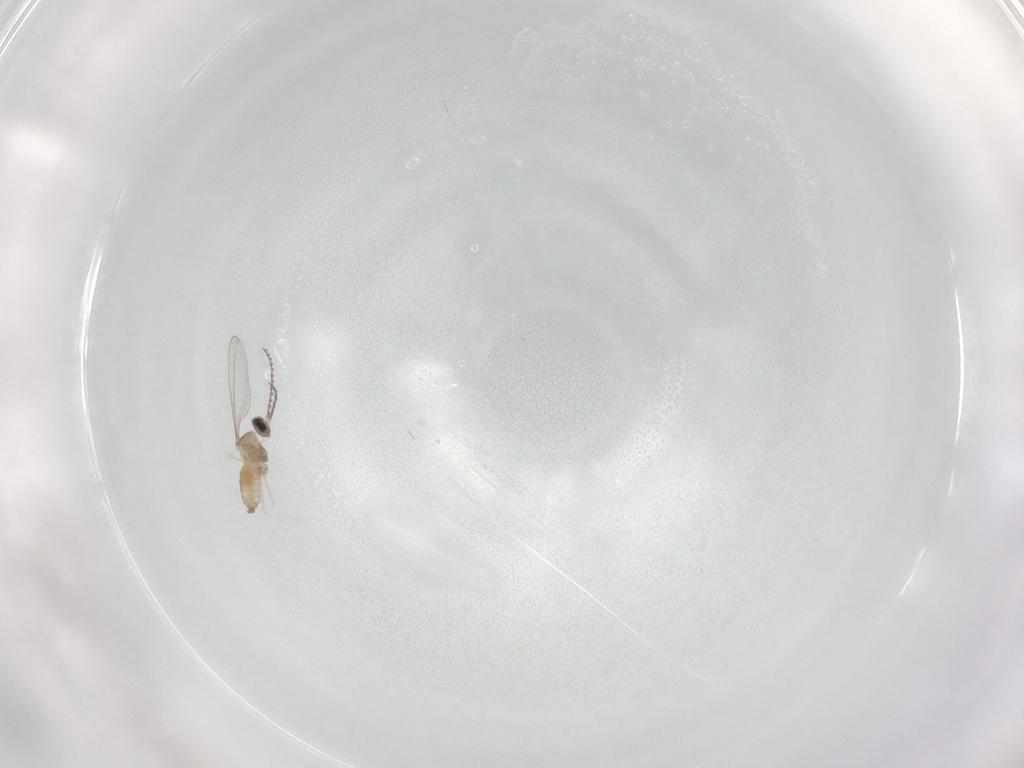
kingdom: Animalia
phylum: Arthropoda
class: Insecta
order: Diptera
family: Cecidomyiidae
